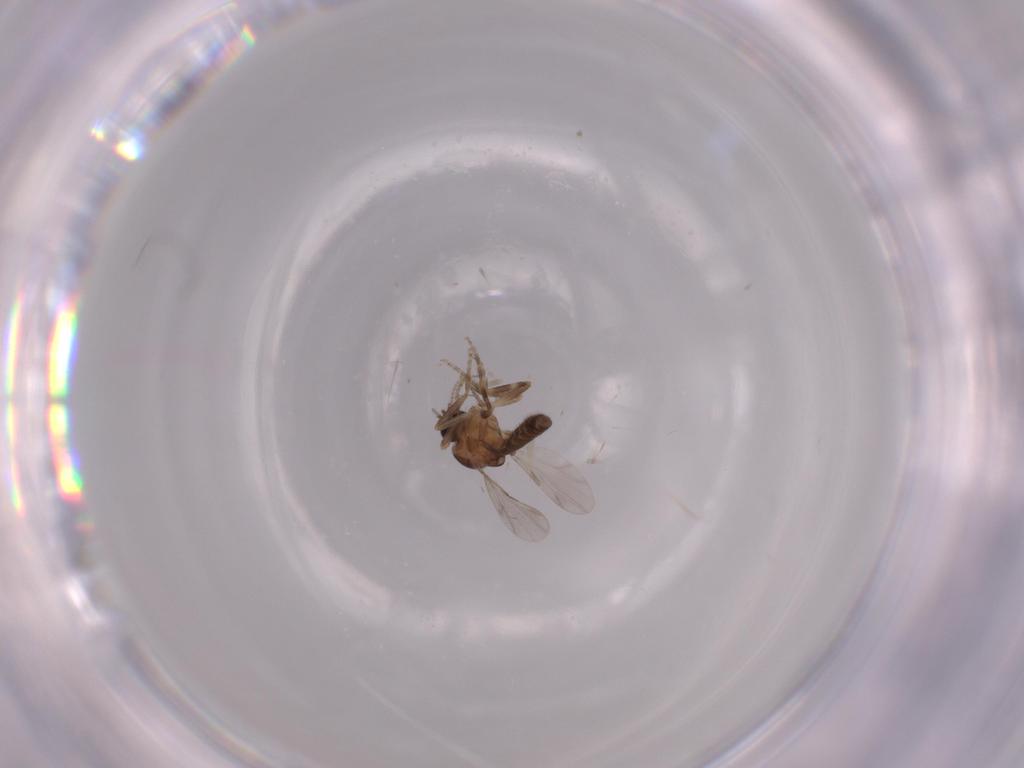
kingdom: Animalia
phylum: Arthropoda
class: Insecta
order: Diptera
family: Ceratopogonidae
